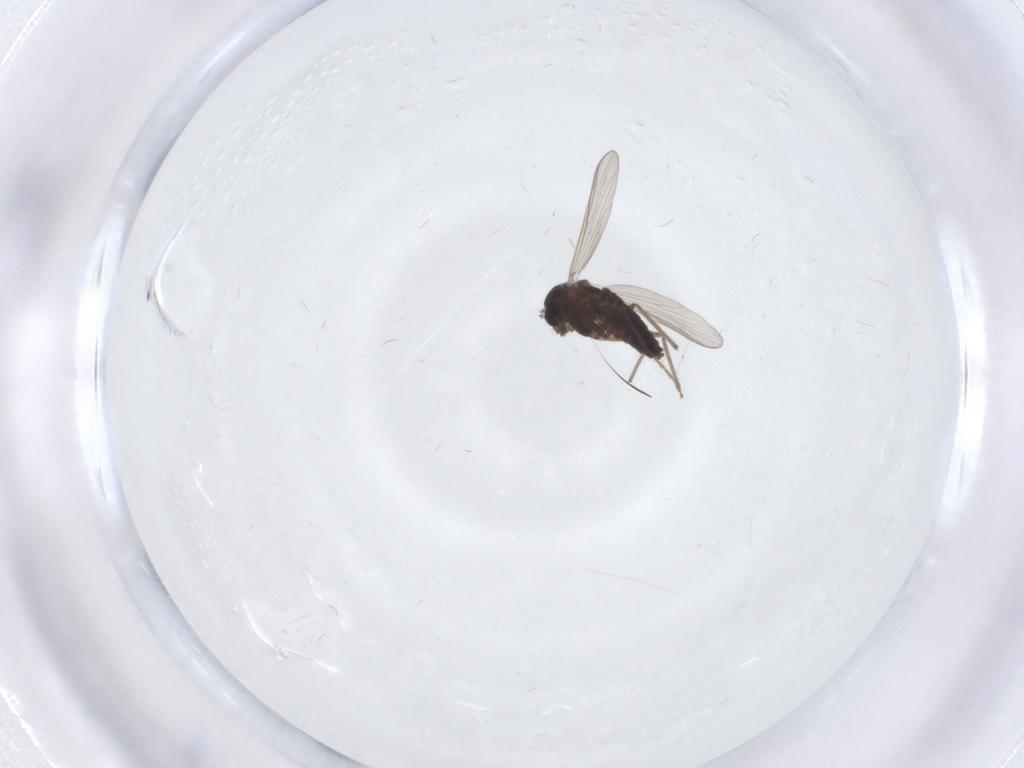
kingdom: Animalia
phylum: Arthropoda
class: Insecta
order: Diptera
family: Chironomidae
